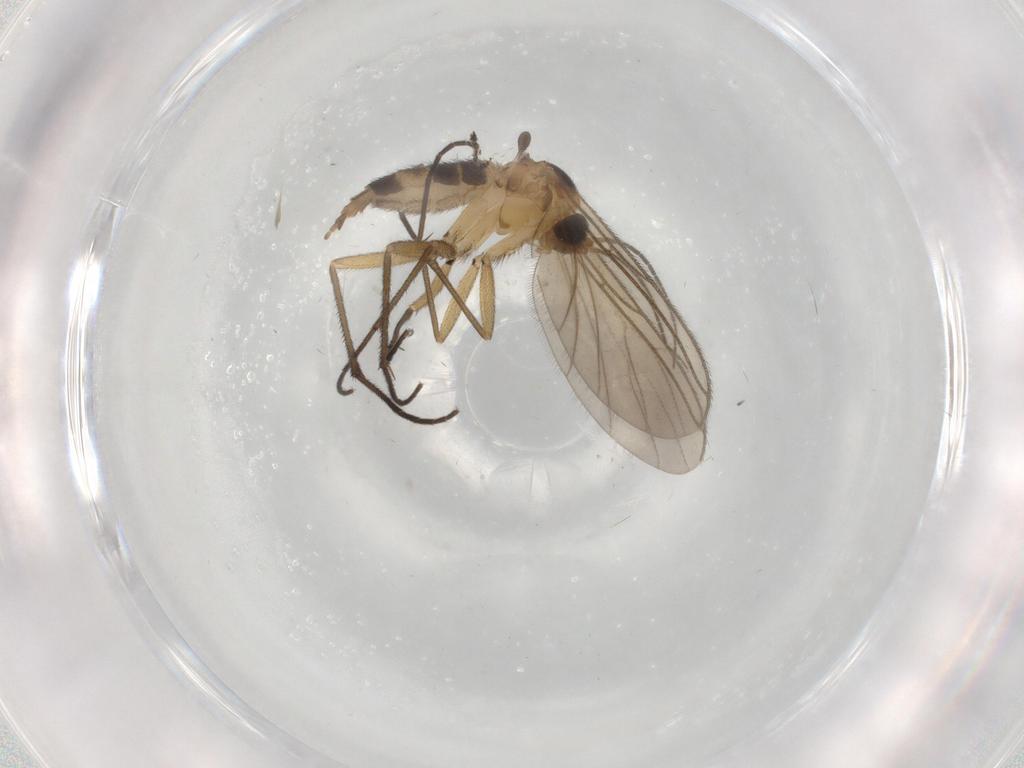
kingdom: Animalia
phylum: Arthropoda
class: Insecta
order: Diptera
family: Sciaridae
